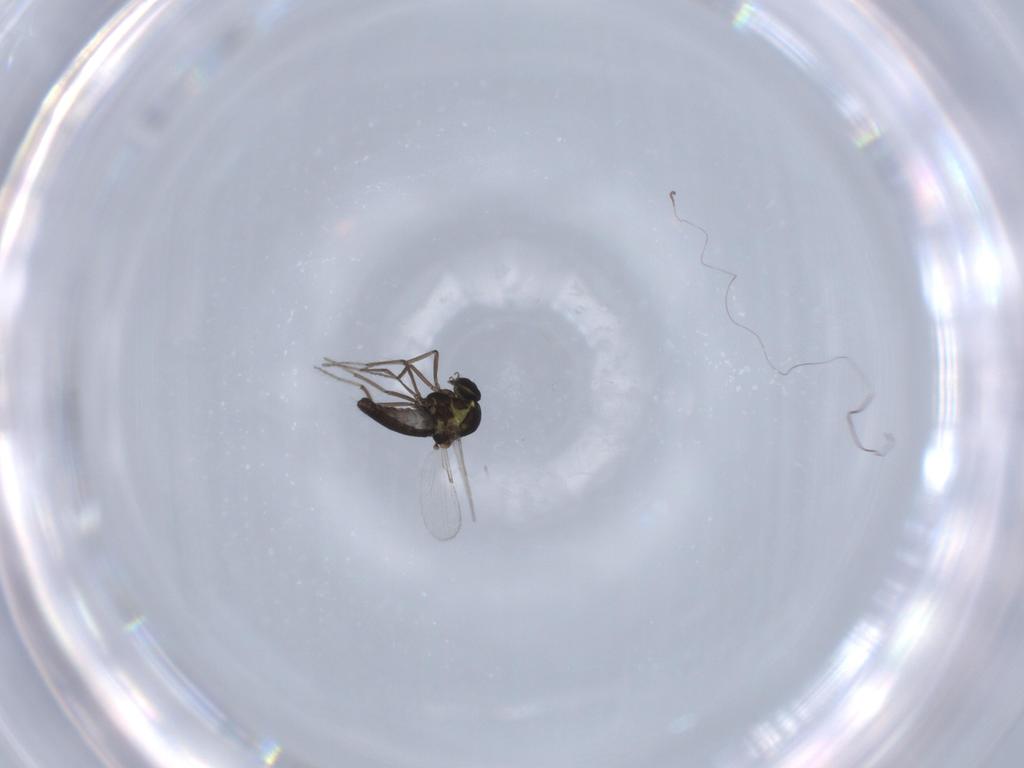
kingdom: Animalia
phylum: Arthropoda
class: Insecta
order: Diptera
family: Ceratopogonidae
